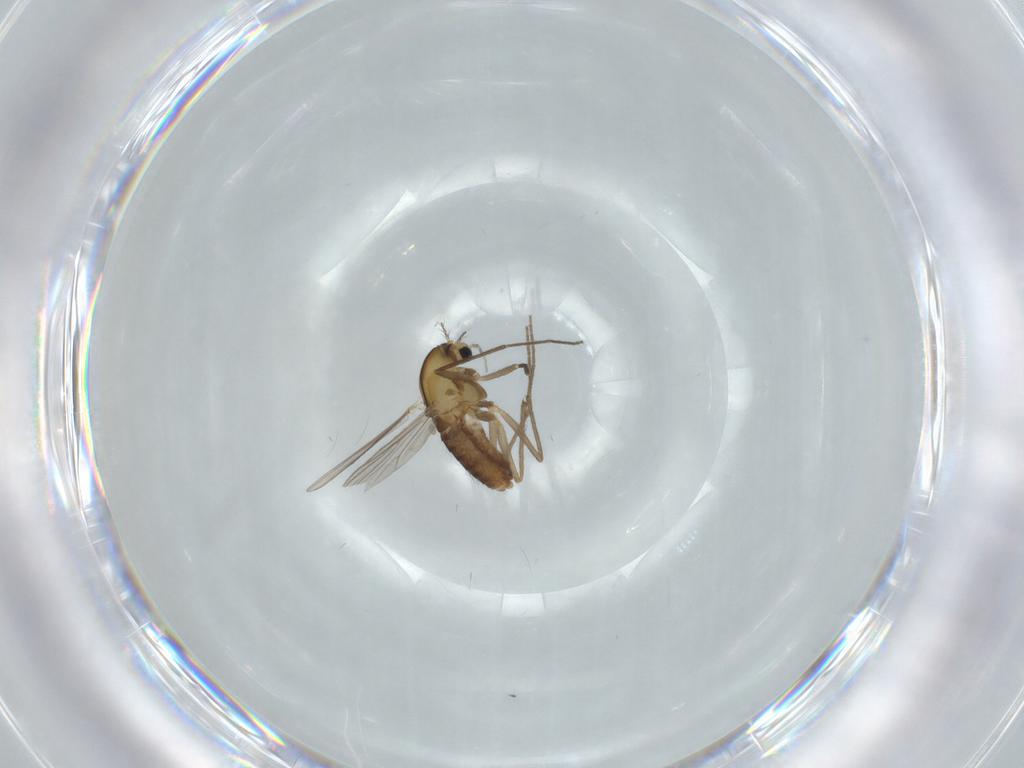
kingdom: Animalia
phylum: Arthropoda
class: Insecta
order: Diptera
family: Chironomidae
